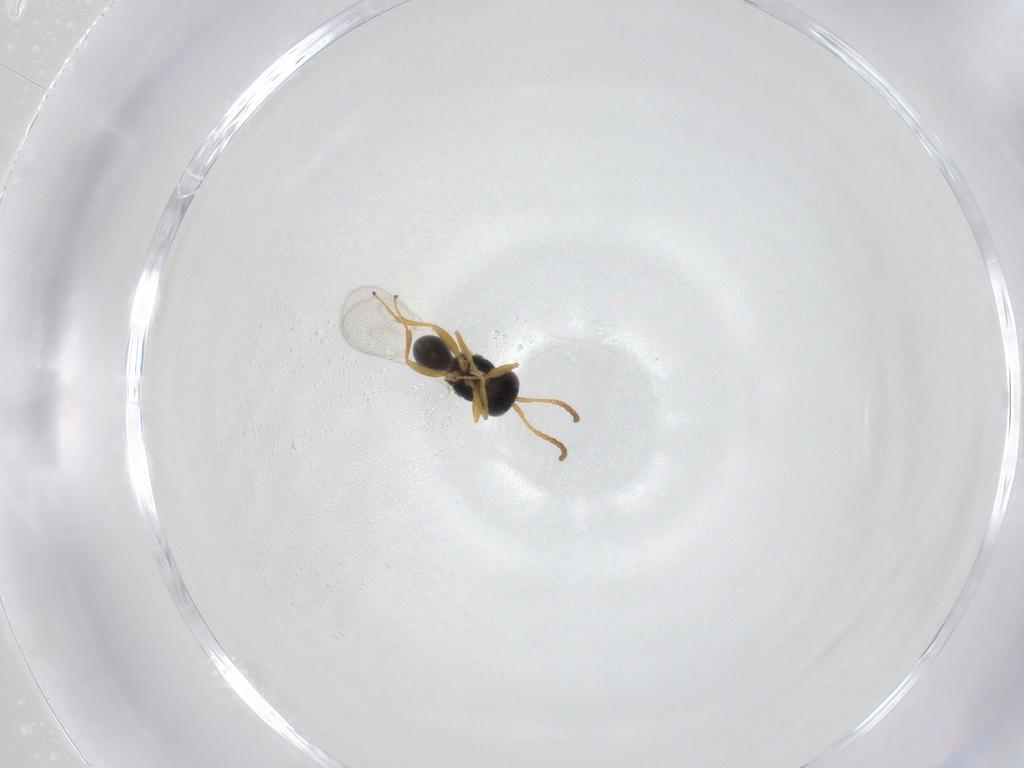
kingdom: Animalia
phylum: Arthropoda
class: Insecta
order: Hymenoptera
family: Figitidae
